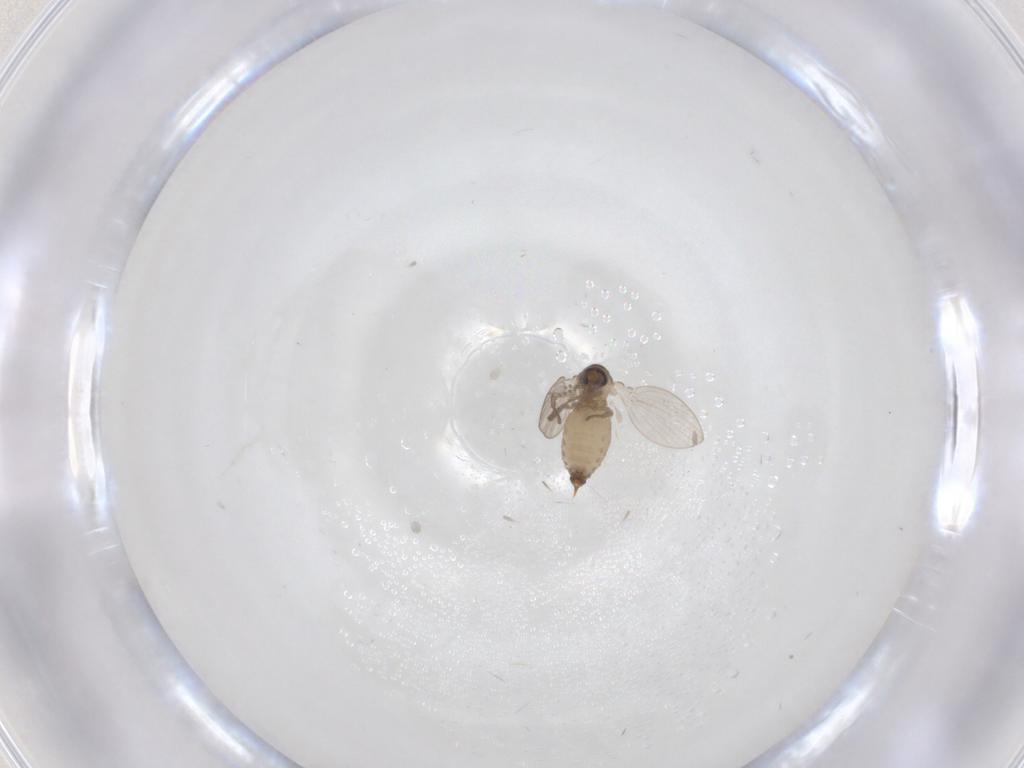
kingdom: Animalia
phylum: Arthropoda
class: Insecta
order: Diptera
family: Psychodidae
